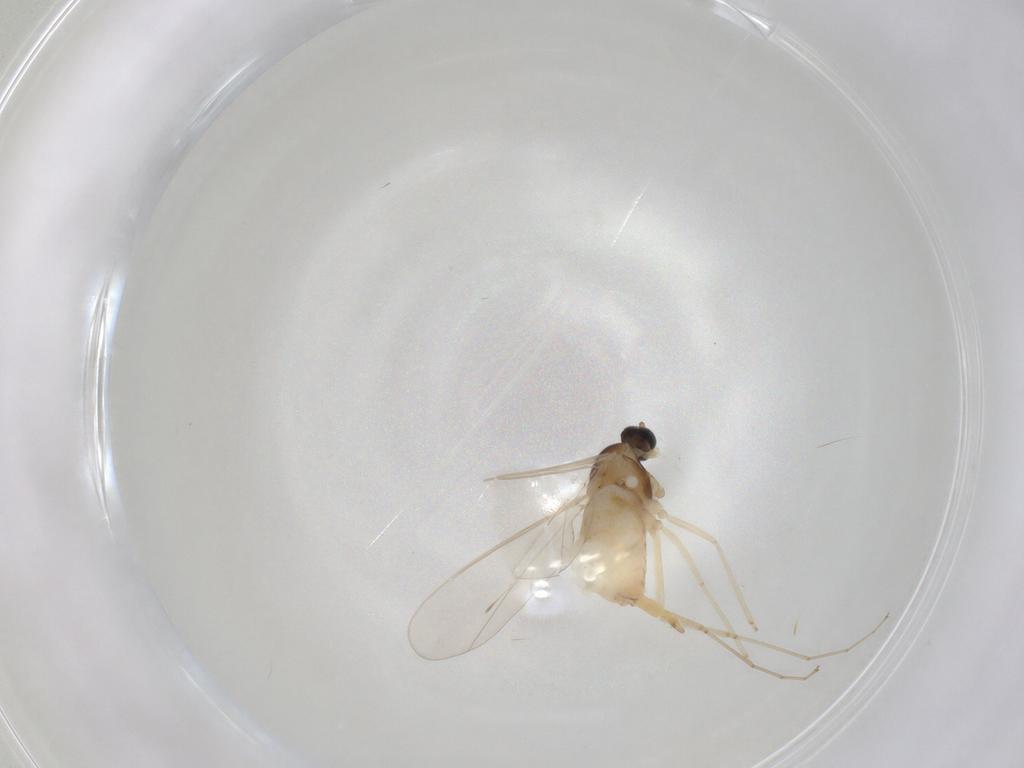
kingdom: Animalia
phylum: Arthropoda
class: Insecta
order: Diptera
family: Cecidomyiidae
